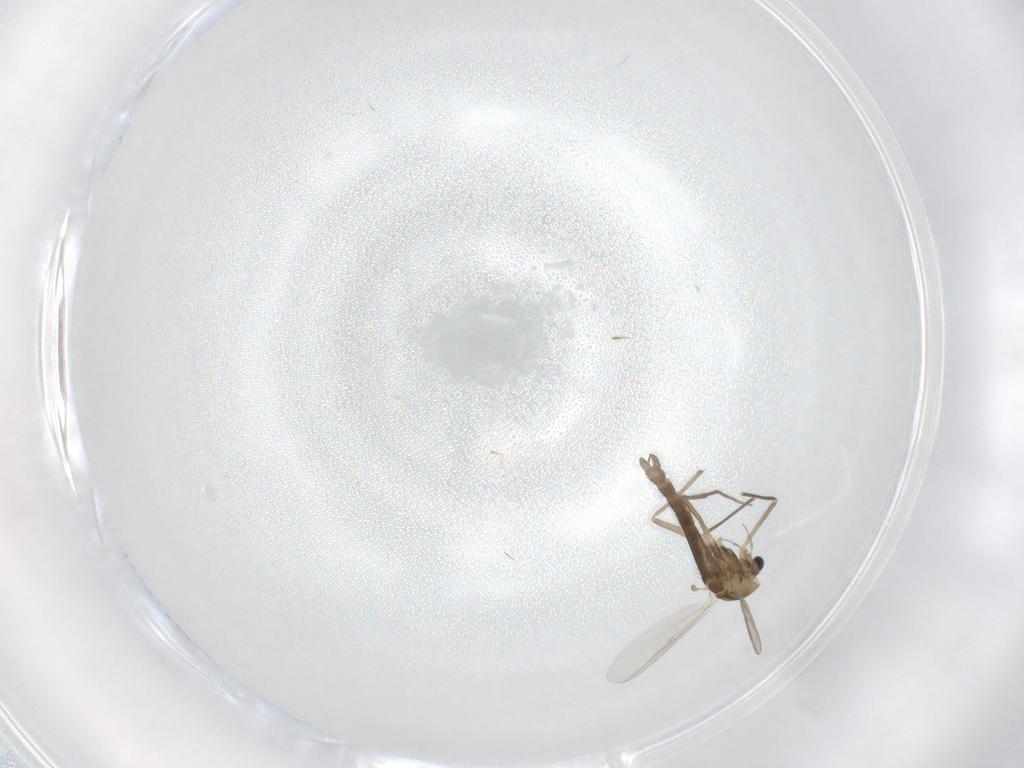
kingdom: Animalia
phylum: Arthropoda
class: Insecta
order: Diptera
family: Chironomidae
